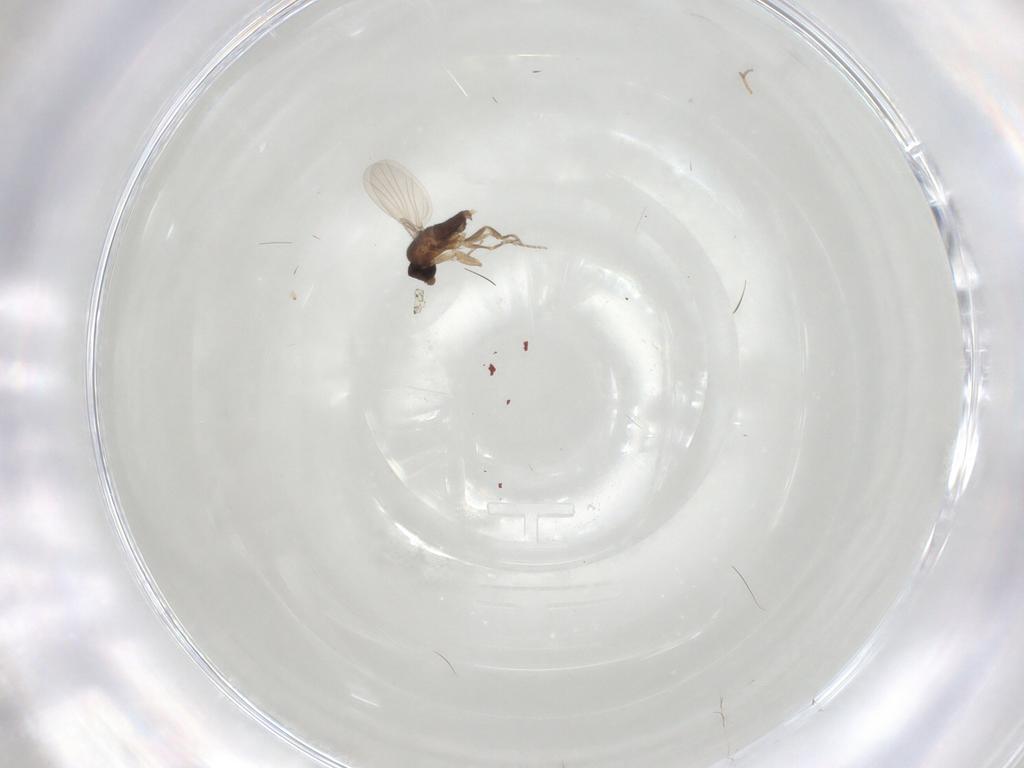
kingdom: Animalia
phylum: Arthropoda
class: Insecta
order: Diptera
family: Phoridae
